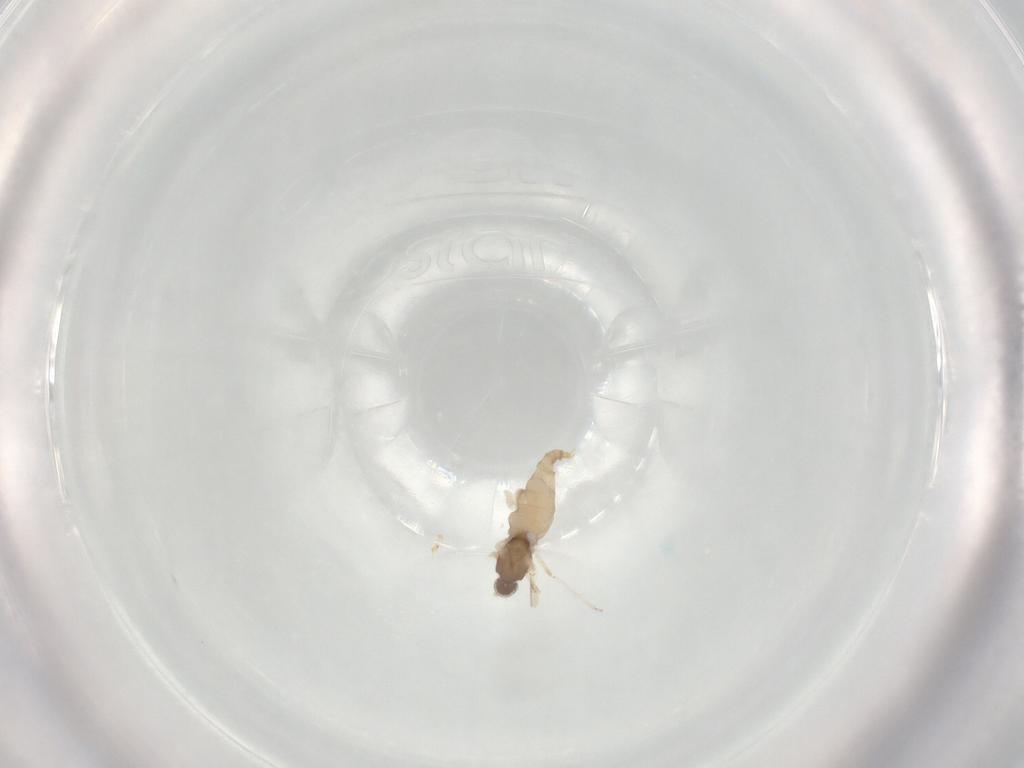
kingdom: Animalia
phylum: Arthropoda
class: Insecta
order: Diptera
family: Cecidomyiidae
